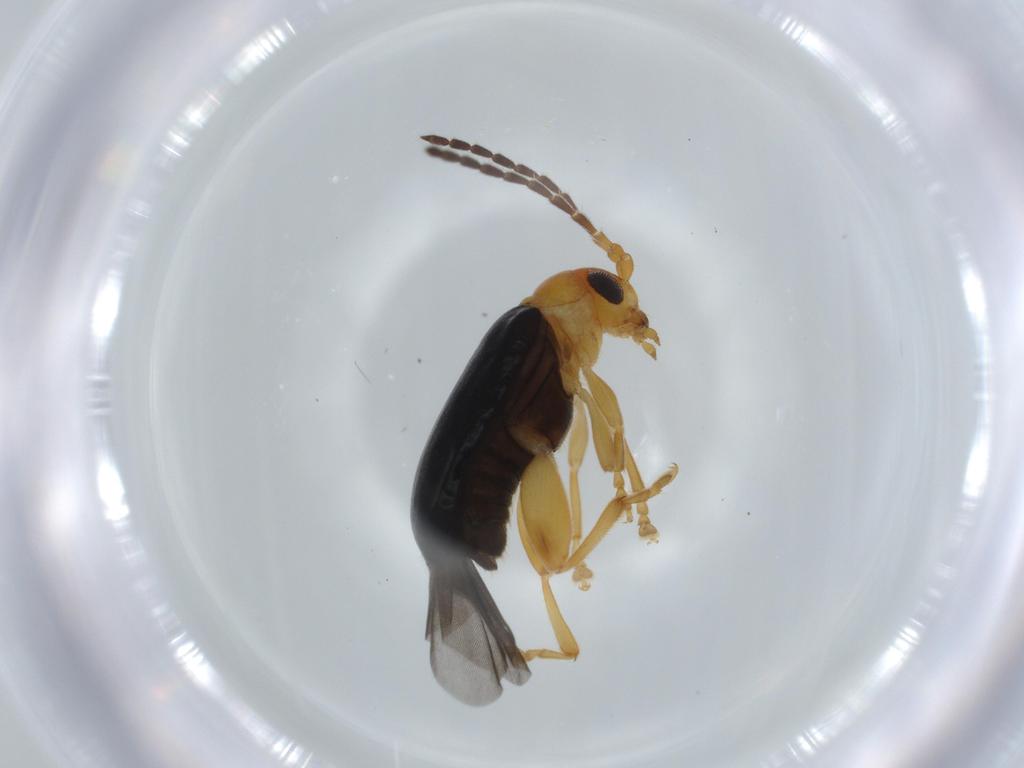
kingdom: Animalia
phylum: Arthropoda
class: Insecta
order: Coleoptera
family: Chrysomelidae
